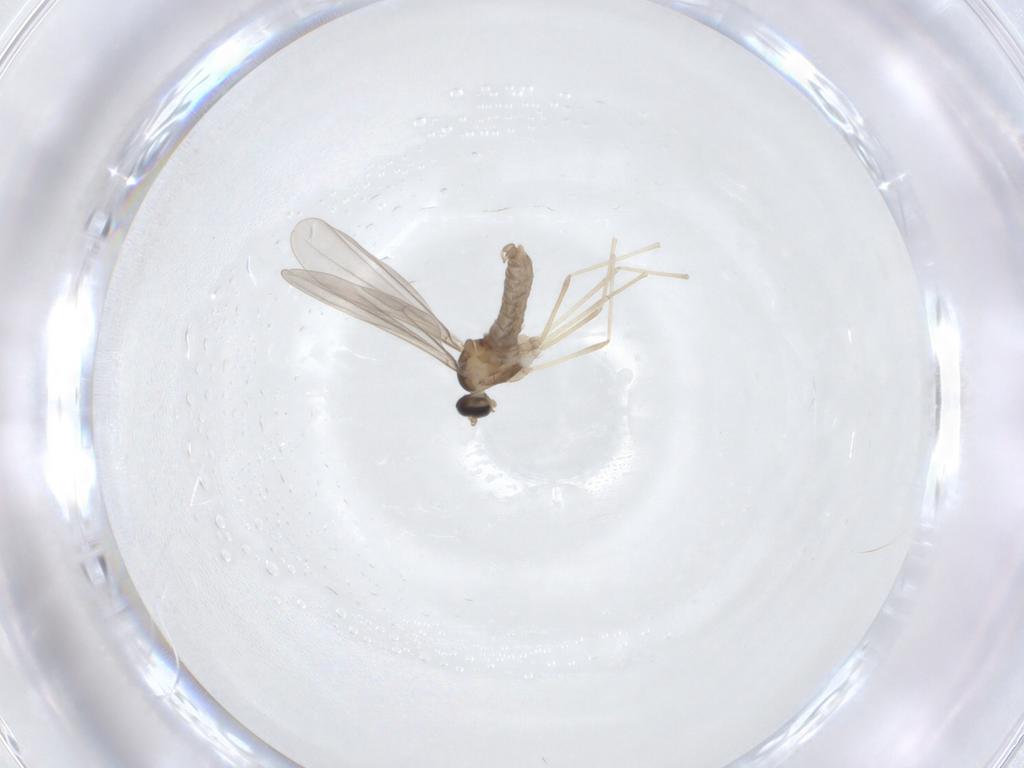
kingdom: Animalia
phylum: Arthropoda
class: Insecta
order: Diptera
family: Cecidomyiidae
